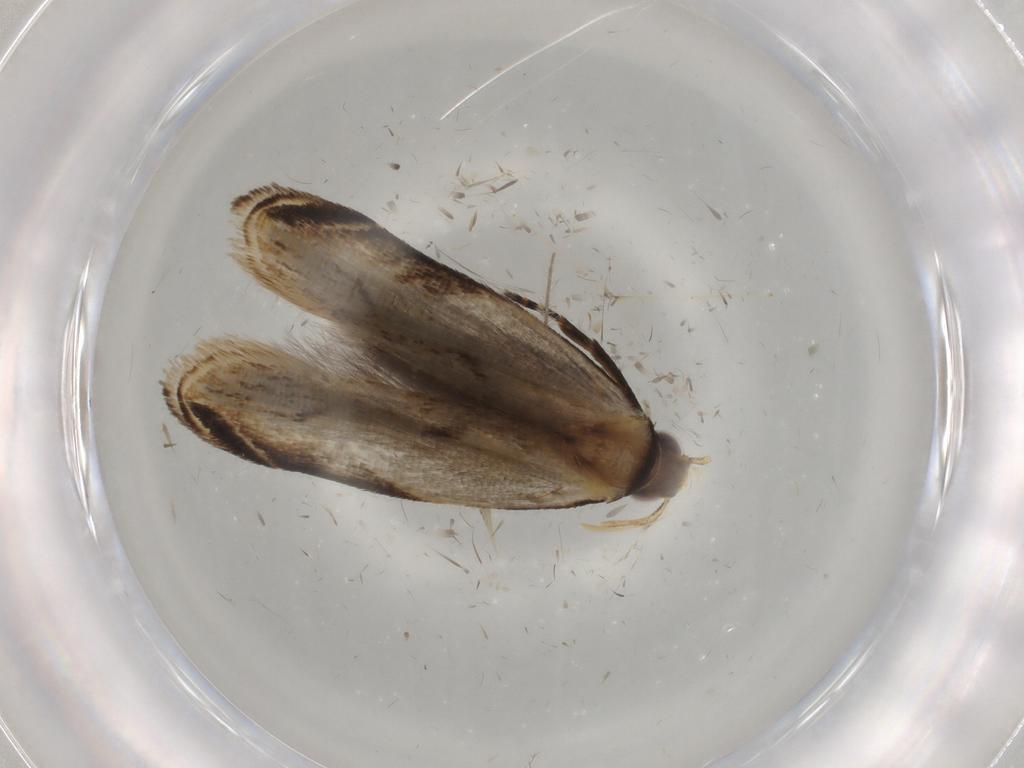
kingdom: Animalia
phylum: Arthropoda
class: Insecta
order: Lepidoptera
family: Gelechiidae
